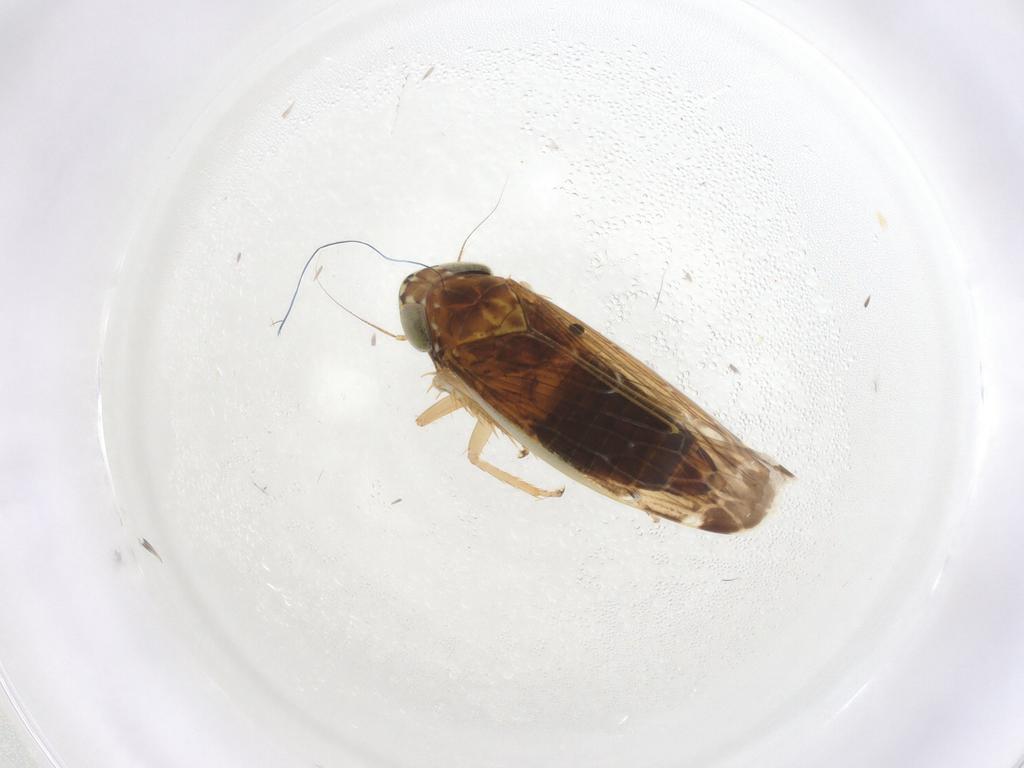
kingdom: Animalia
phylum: Arthropoda
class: Insecta
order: Hemiptera
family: Cicadellidae
